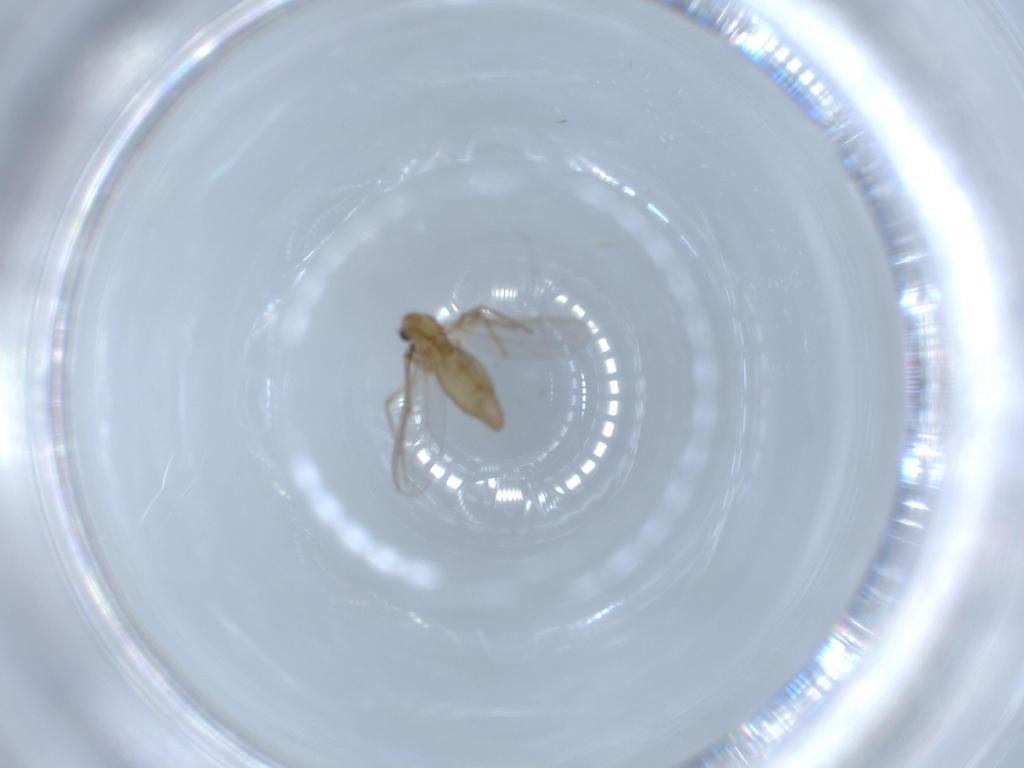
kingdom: Animalia
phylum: Arthropoda
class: Insecta
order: Diptera
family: Chironomidae
